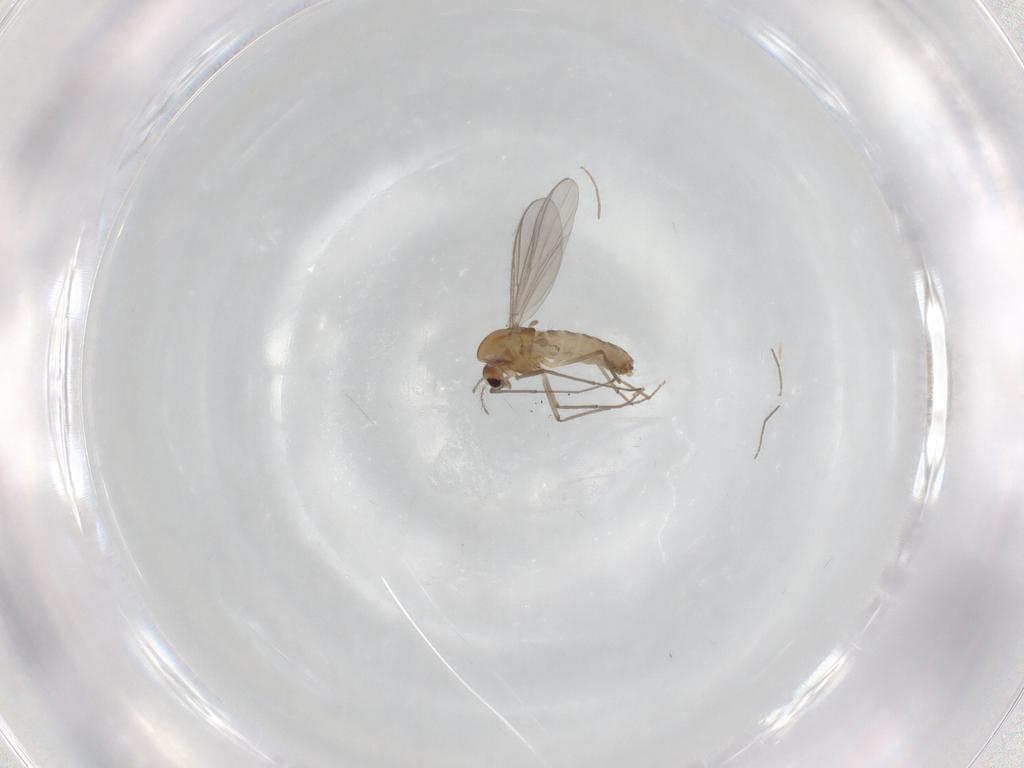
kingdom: Animalia
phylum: Arthropoda
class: Insecta
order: Diptera
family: Chironomidae
